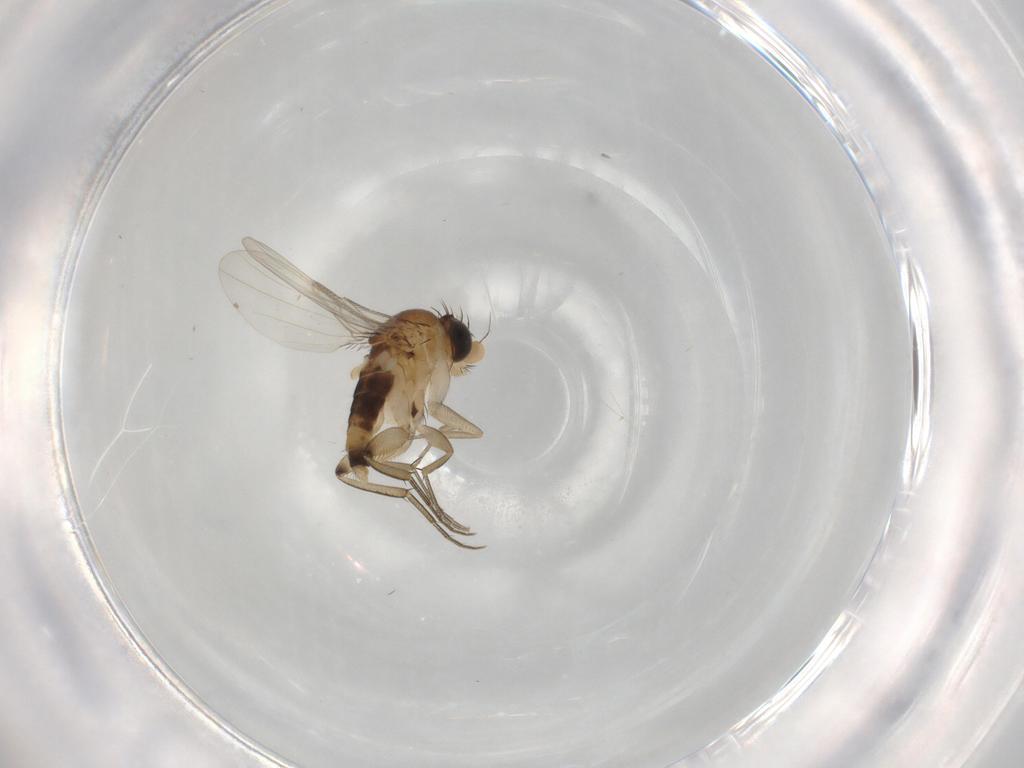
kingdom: Animalia
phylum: Arthropoda
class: Insecta
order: Diptera
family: Phoridae
